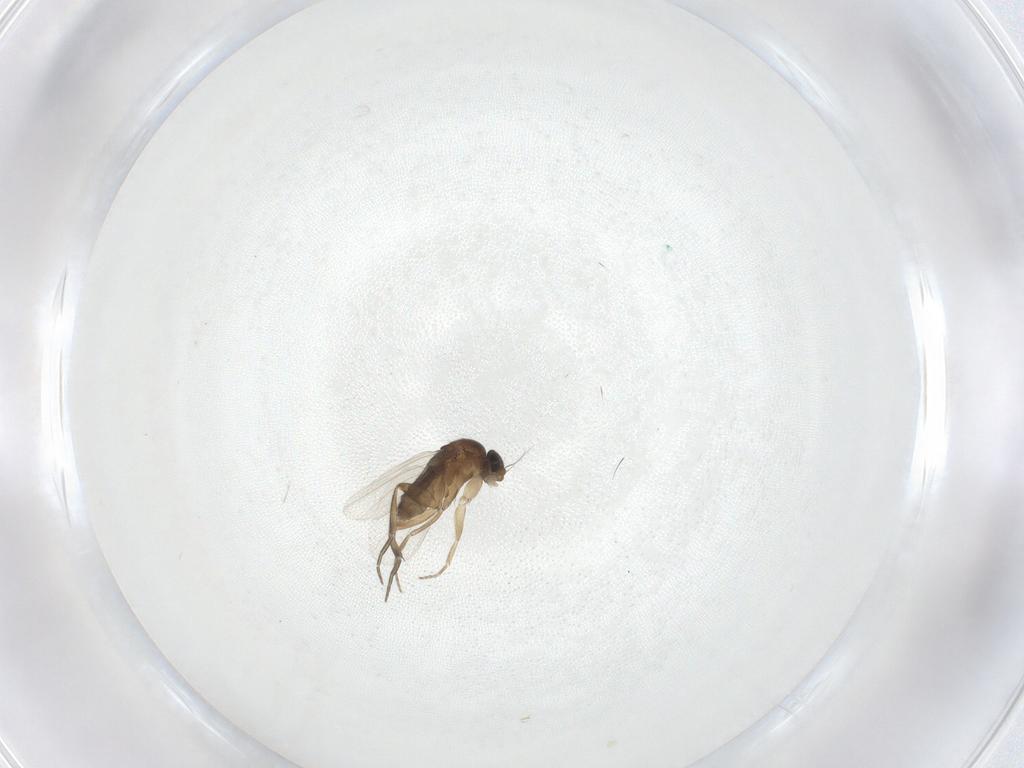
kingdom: Animalia
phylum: Arthropoda
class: Insecta
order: Diptera
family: Phoridae
